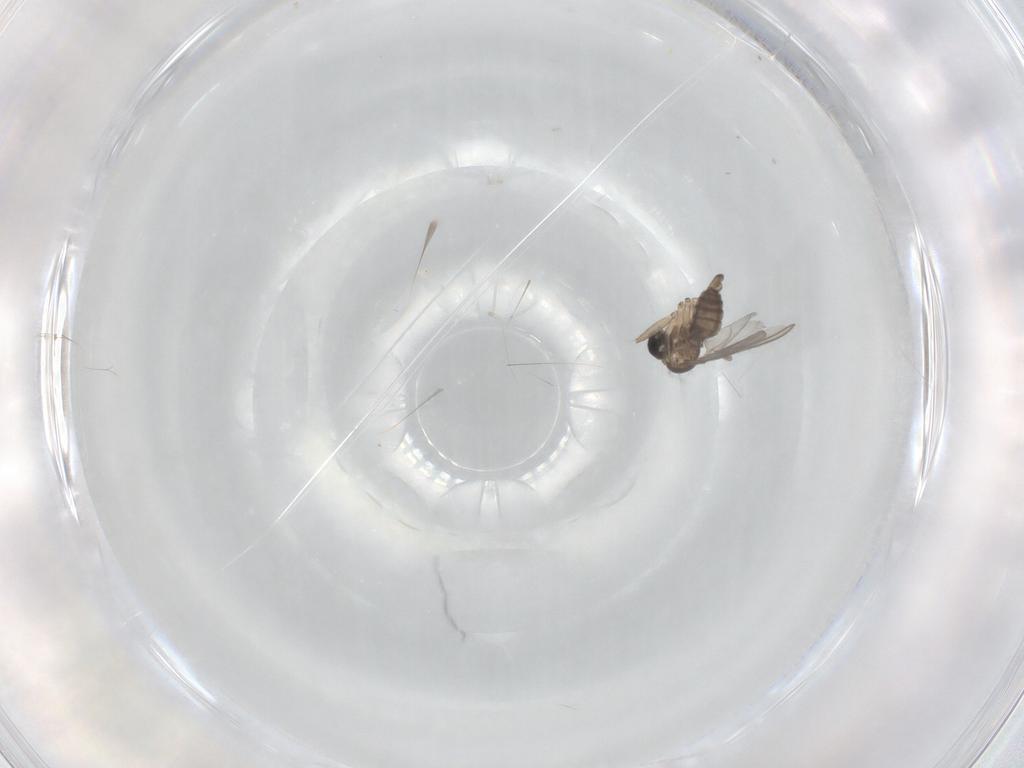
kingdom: Animalia
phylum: Arthropoda
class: Insecta
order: Diptera
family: Sciaridae
